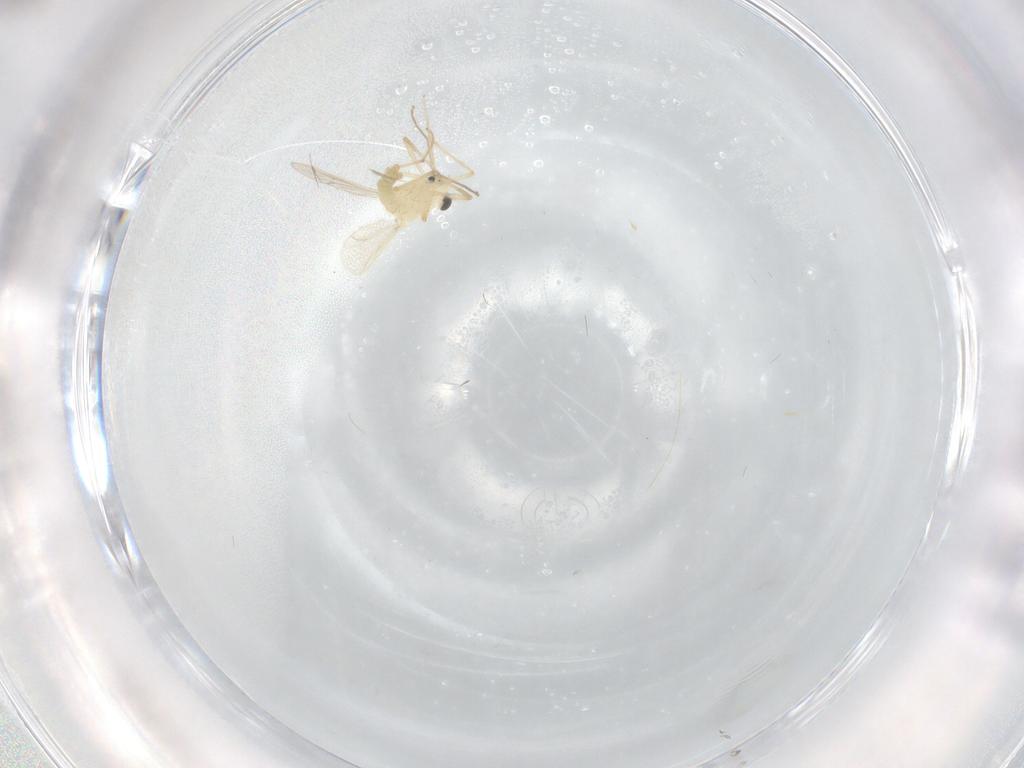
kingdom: Animalia
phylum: Arthropoda
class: Insecta
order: Diptera
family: Chironomidae
